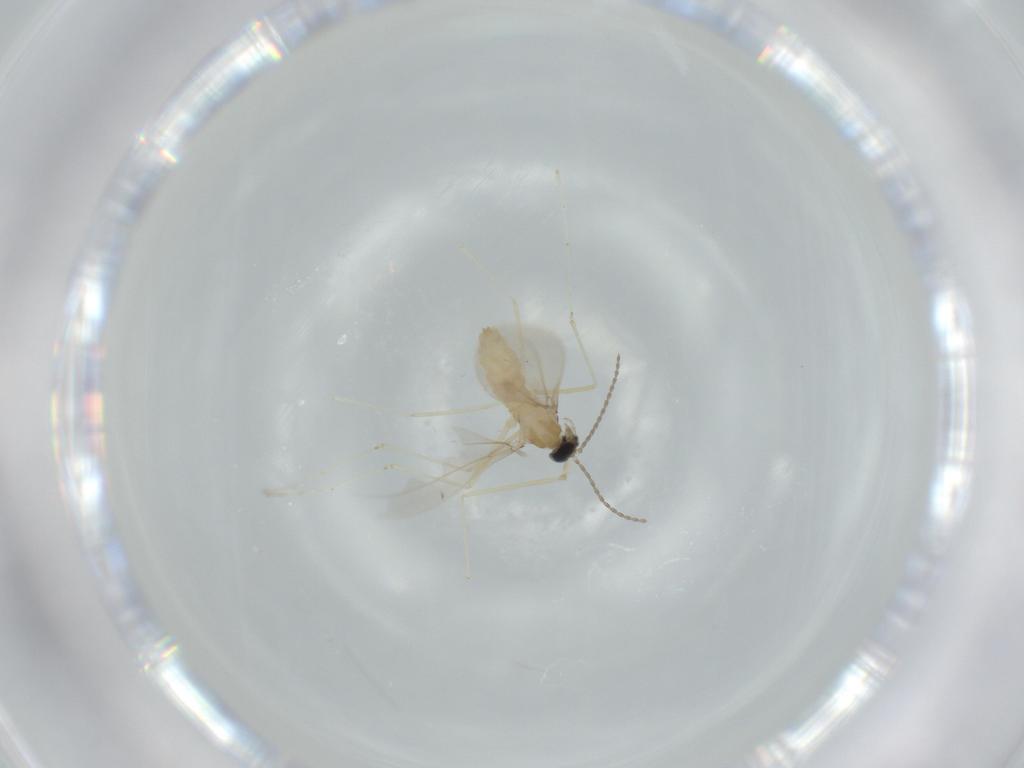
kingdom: Animalia
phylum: Arthropoda
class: Insecta
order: Diptera
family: Cecidomyiidae
